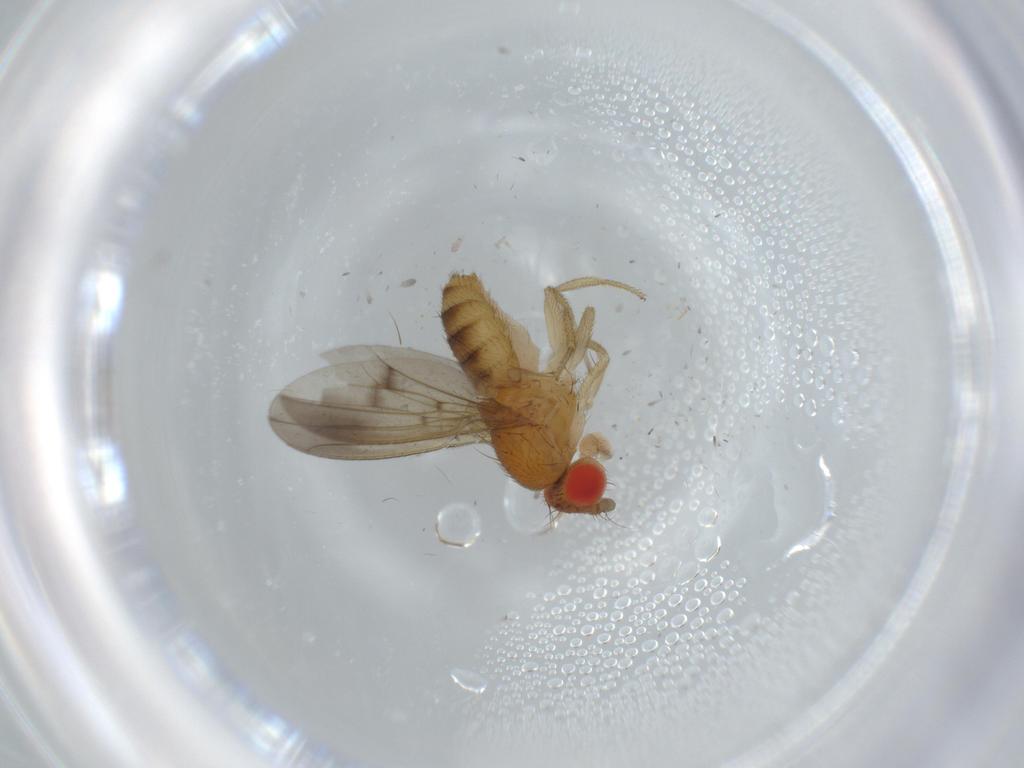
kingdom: Animalia
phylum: Arthropoda
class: Insecta
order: Diptera
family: Drosophilidae
